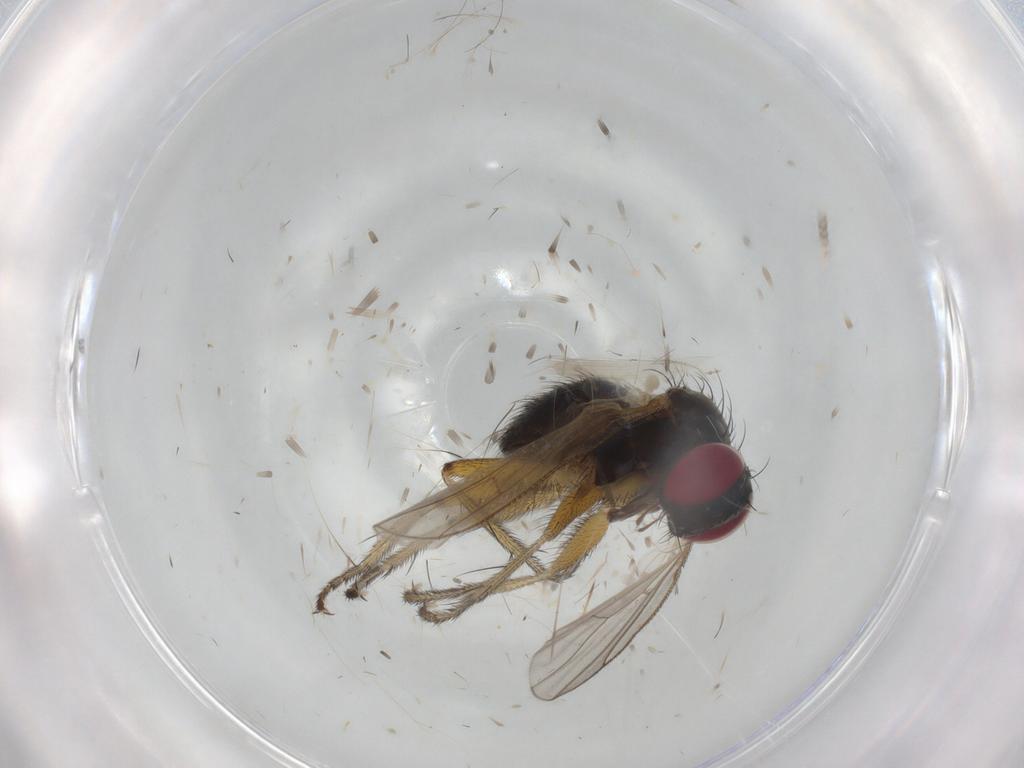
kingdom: Animalia
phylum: Arthropoda
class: Insecta
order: Diptera
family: Muscidae
